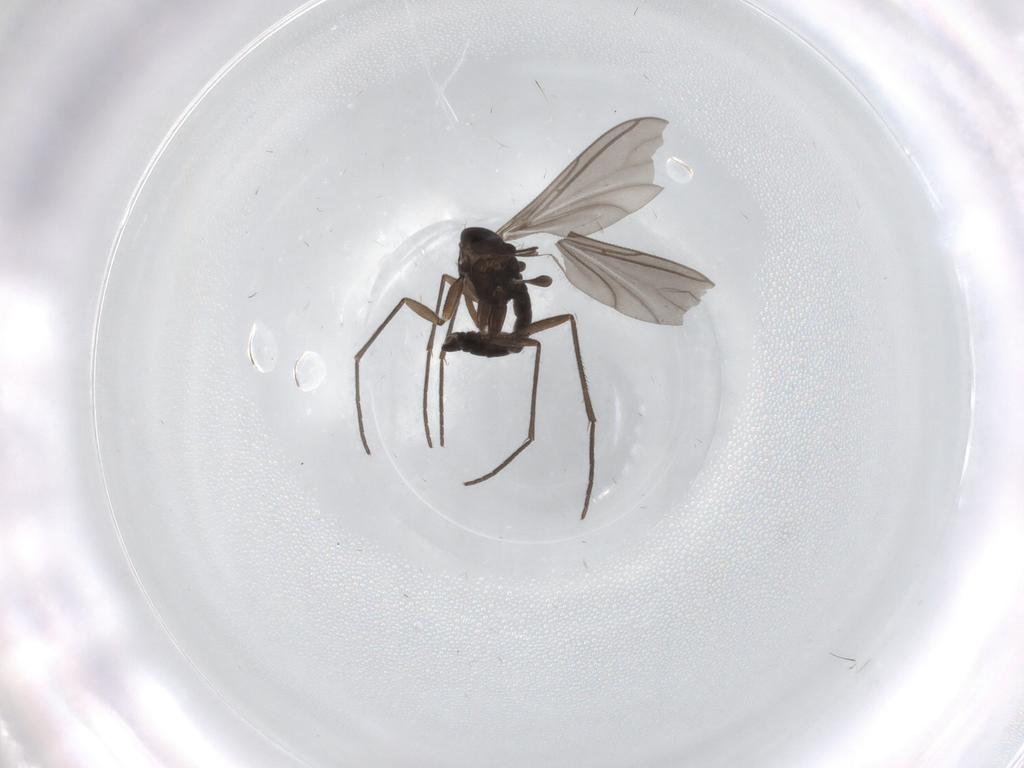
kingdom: Animalia
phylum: Arthropoda
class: Insecta
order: Diptera
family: Sciaridae
